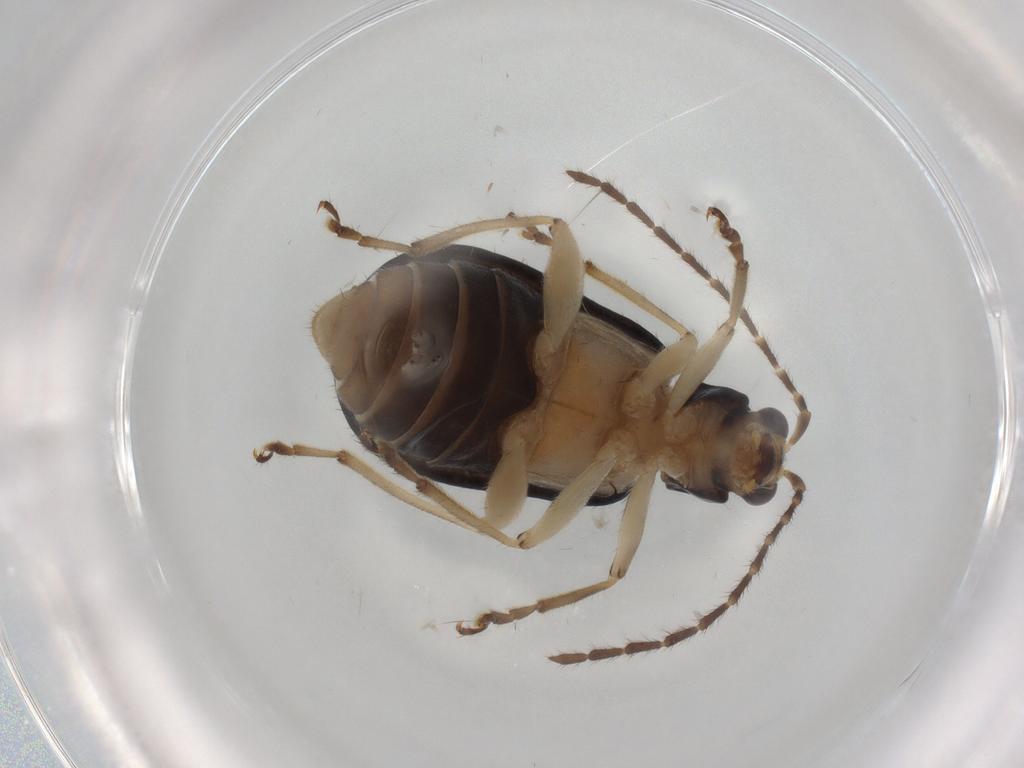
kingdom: Animalia
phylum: Arthropoda
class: Insecta
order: Coleoptera
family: Chrysomelidae
